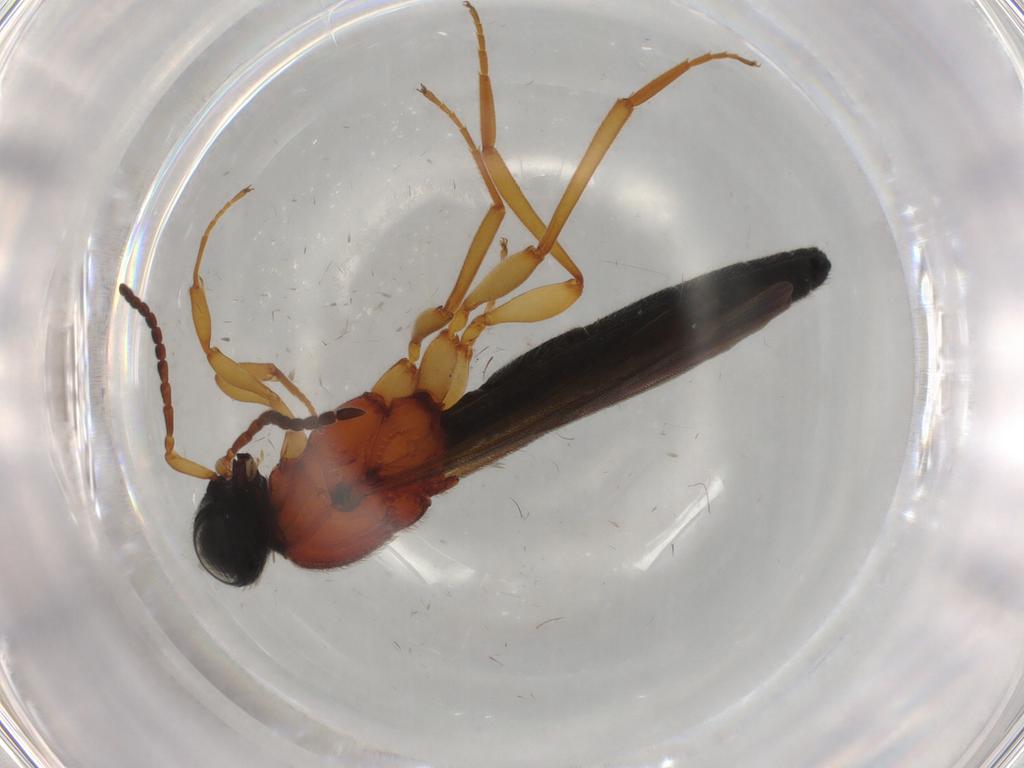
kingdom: Animalia
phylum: Arthropoda
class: Insecta
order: Hymenoptera
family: Scelionidae
